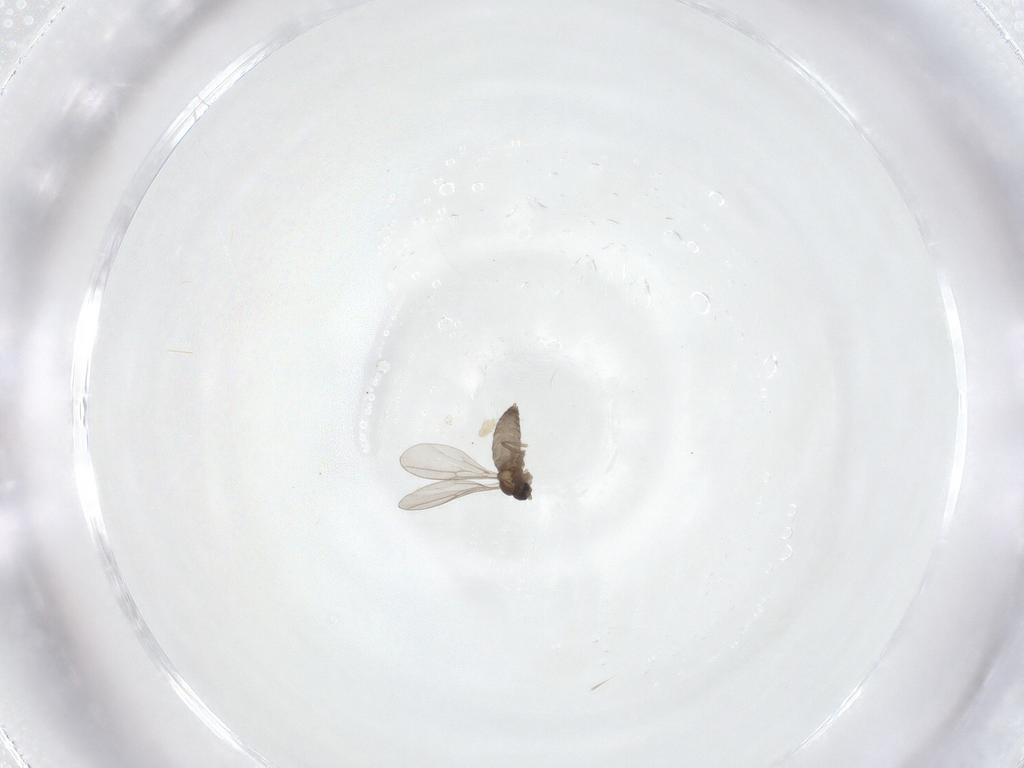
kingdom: Animalia
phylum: Arthropoda
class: Insecta
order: Diptera
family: Cecidomyiidae
